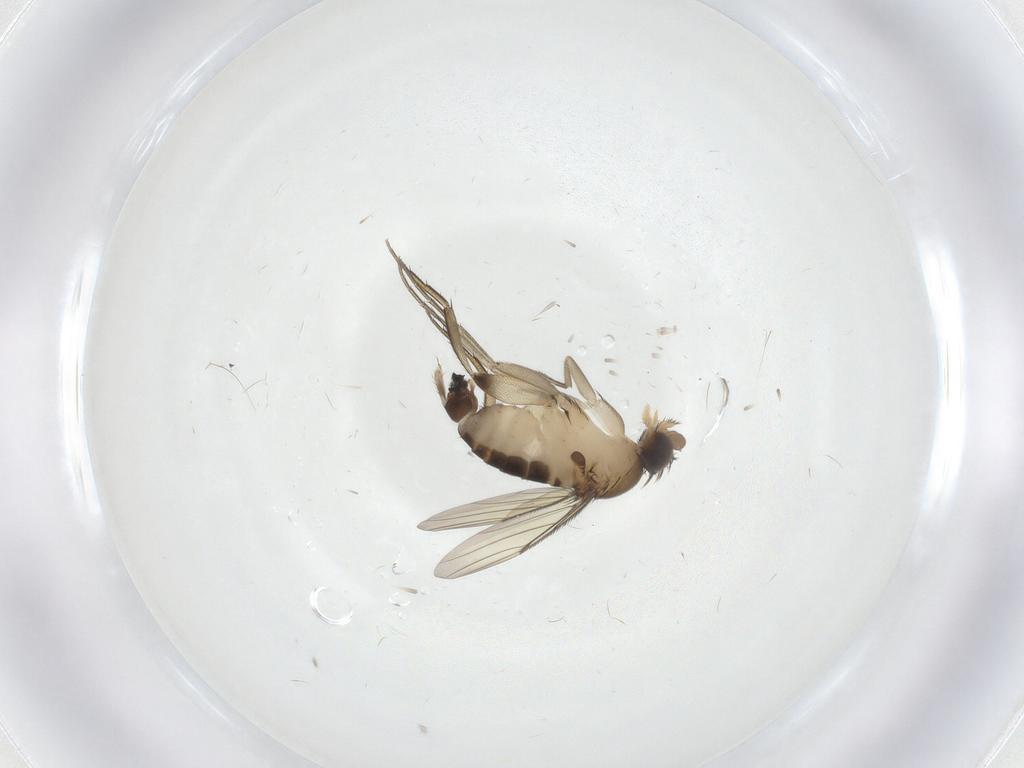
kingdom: Animalia
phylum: Arthropoda
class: Insecta
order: Diptera
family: Phoridae
